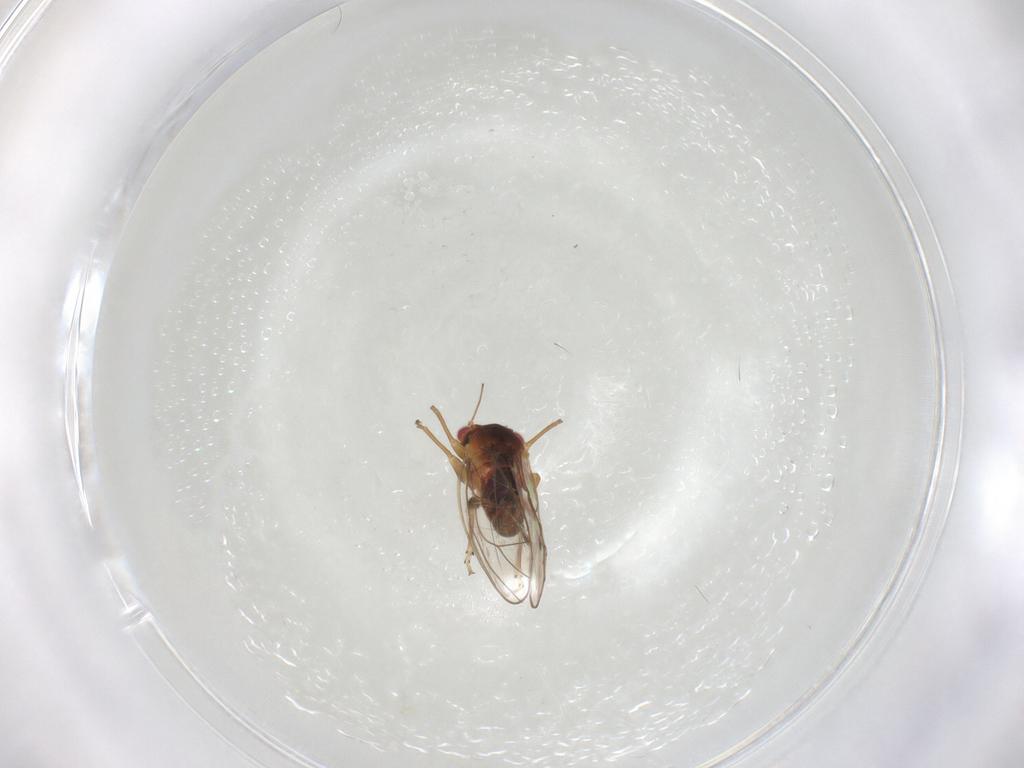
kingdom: Animalia
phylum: Arthropoda
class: Insecta
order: Hemiptera
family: Psyllidae
